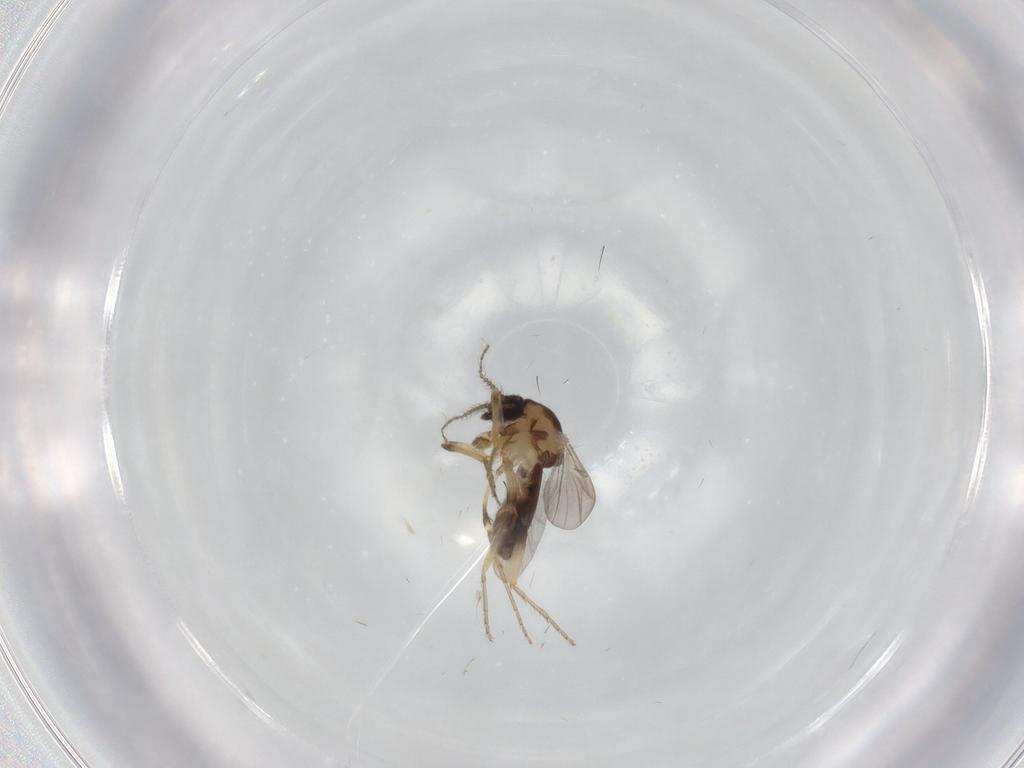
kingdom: Animalia
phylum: Arthropoda
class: Insecta
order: Diptera
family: Ceratopogonidae
